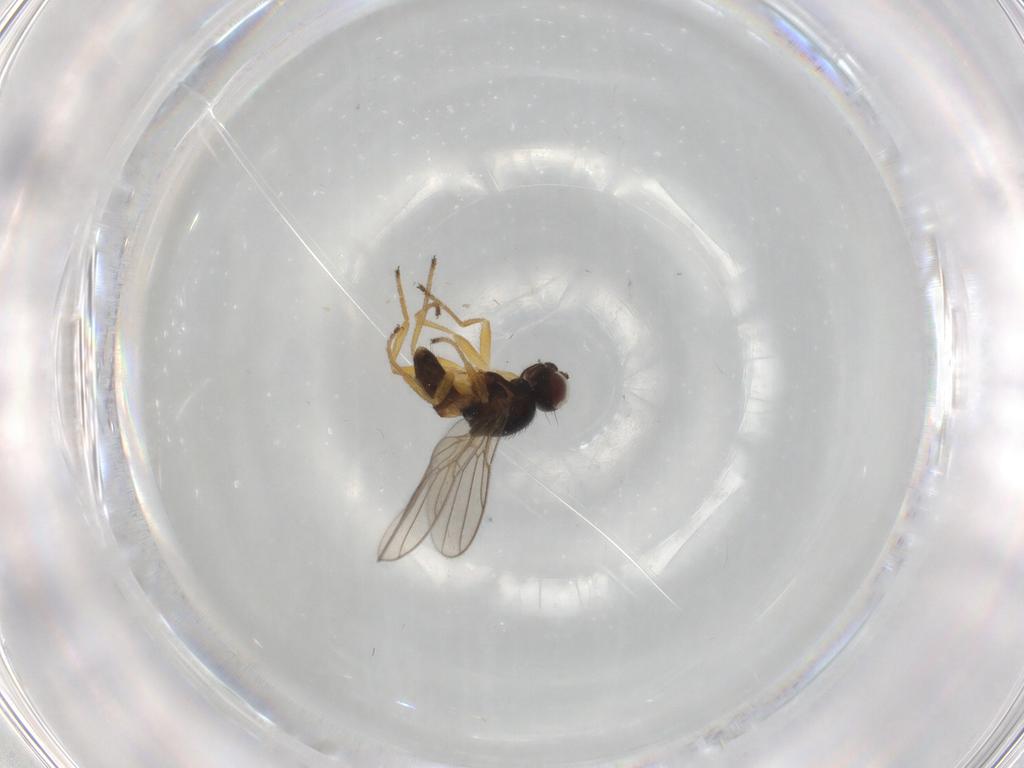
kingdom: Animalia
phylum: Arthropoda
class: Insecta
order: Diptera
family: Chloropidae
